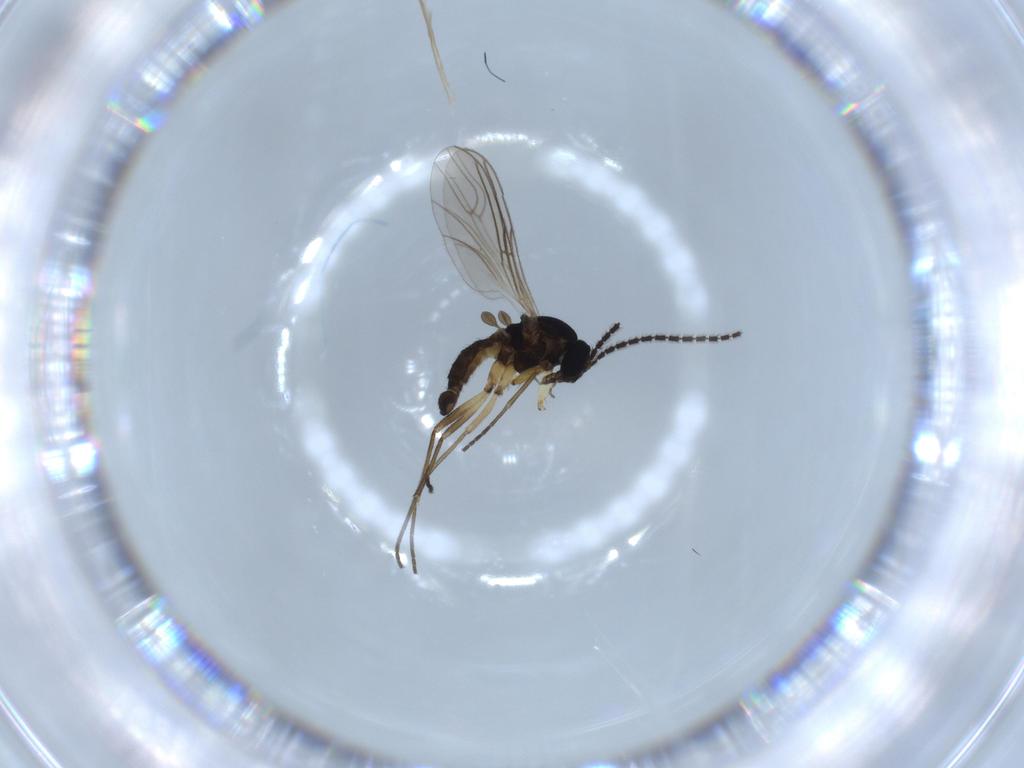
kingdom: Animalia
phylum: Arthropoda
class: Insecta
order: Diptera
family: Sciaridae
